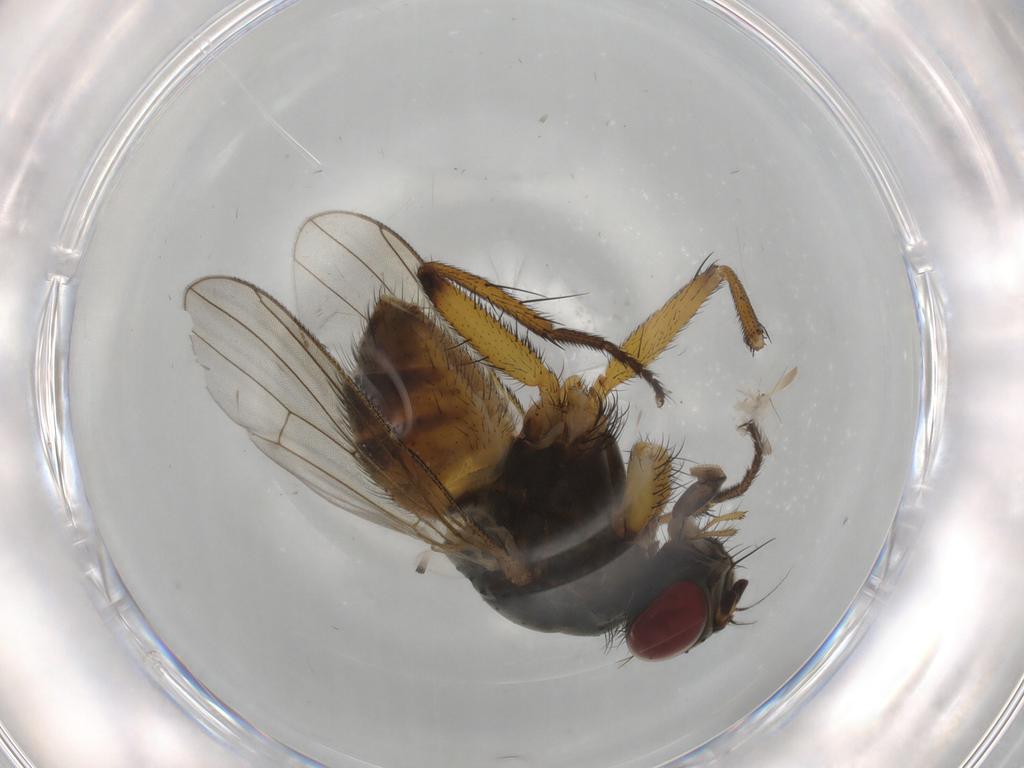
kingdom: Animalia
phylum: Arthropoda
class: Insecta
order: Diptera
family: Muscidae
